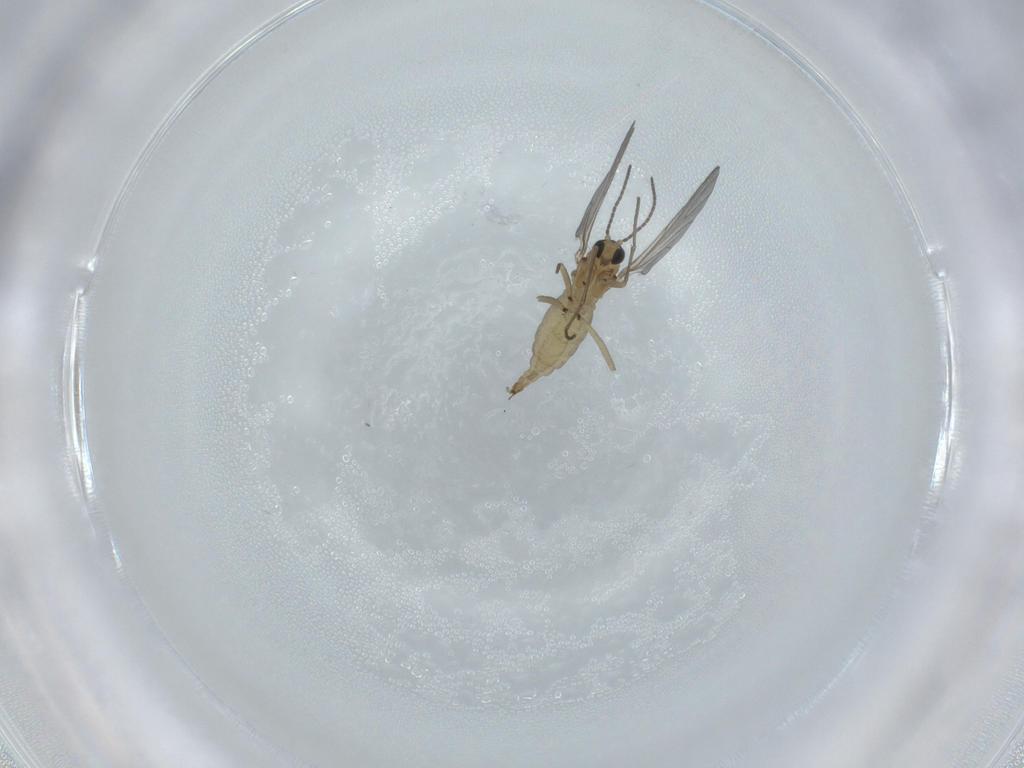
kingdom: Animalia
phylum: Arthropoda
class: Insecta
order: Diptera
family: Sciaridae
